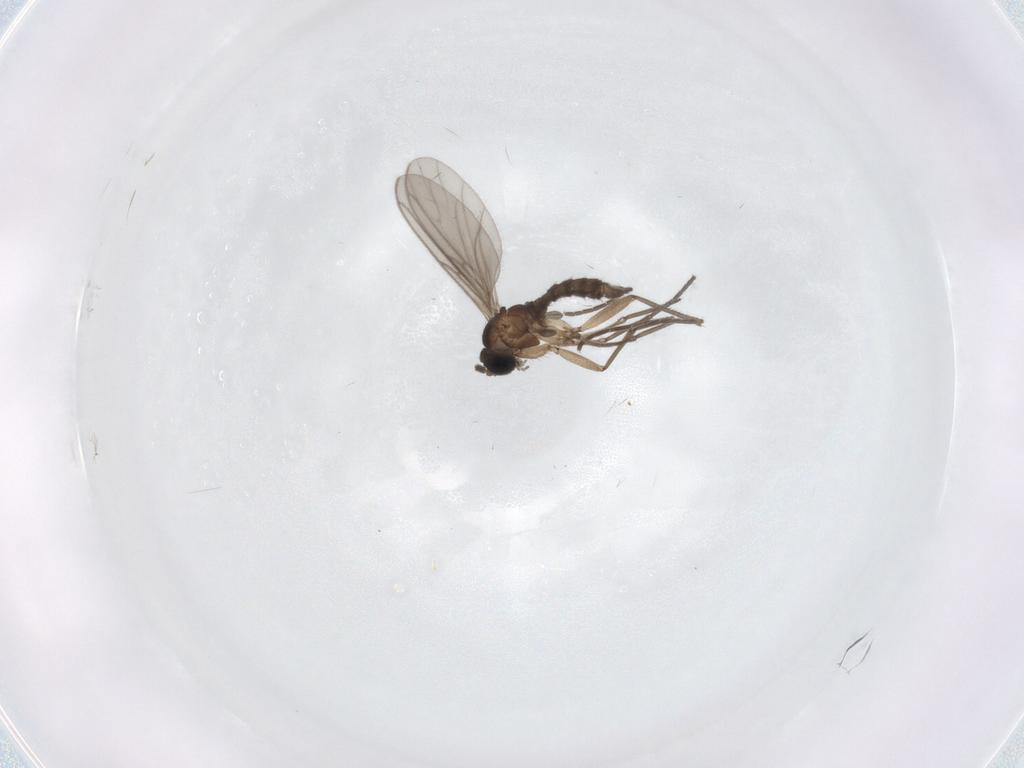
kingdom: Animalia
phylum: Arthropoda
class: Insecta
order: Diptera
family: Sciaridae
